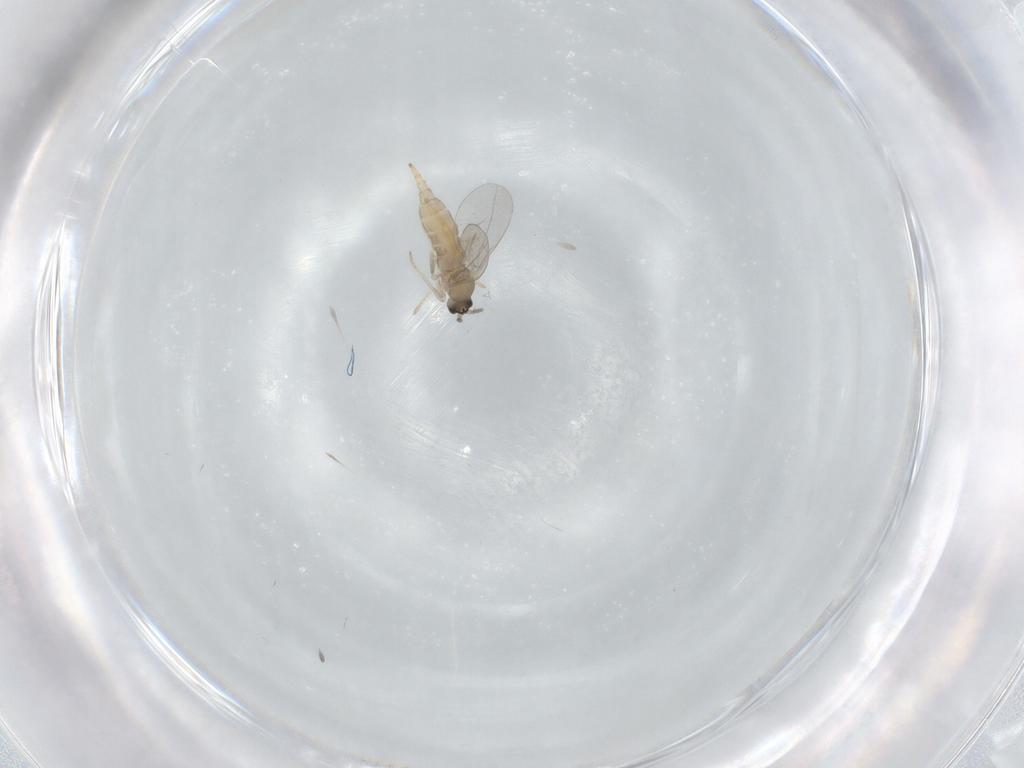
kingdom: Animalia
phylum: Arthropoda
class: Insecta
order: Diptera
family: Cecidomyiidae
